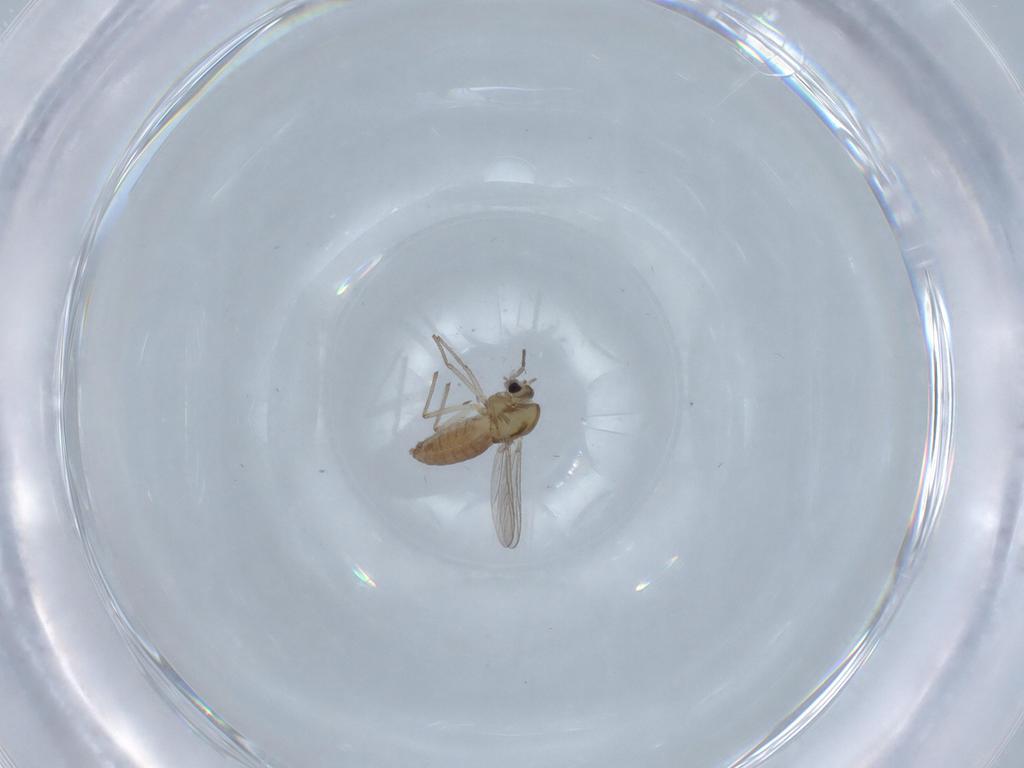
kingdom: Animalia
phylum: Arthropoda
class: Insecta
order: Diptera
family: Chironomidae
